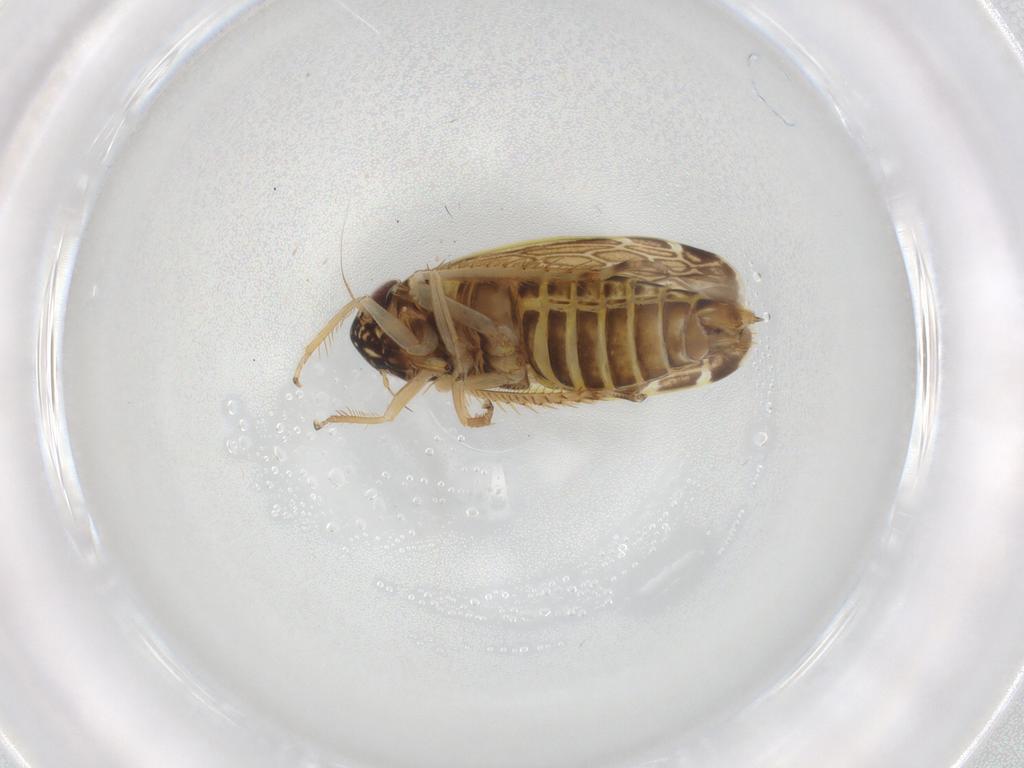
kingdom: Animalia
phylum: Arthropoda
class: Insecta
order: Hemiptera
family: Cicadellidae
